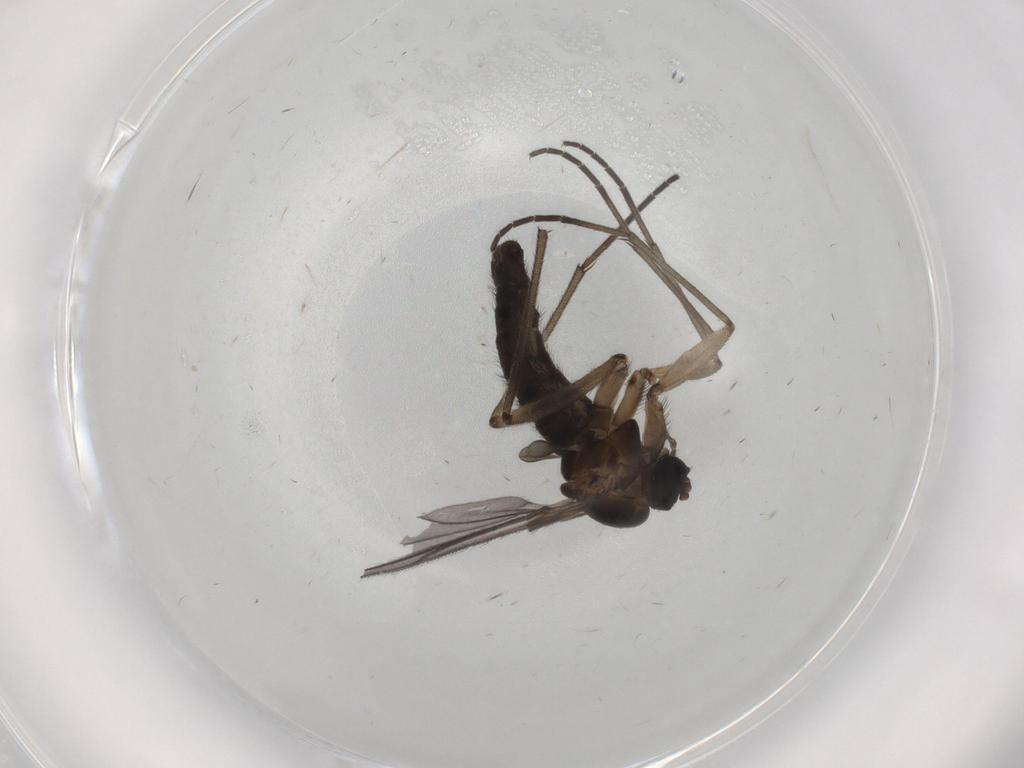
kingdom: Animalia
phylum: Arthropoda
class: Insecta
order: Diptera
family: Sciaridae
